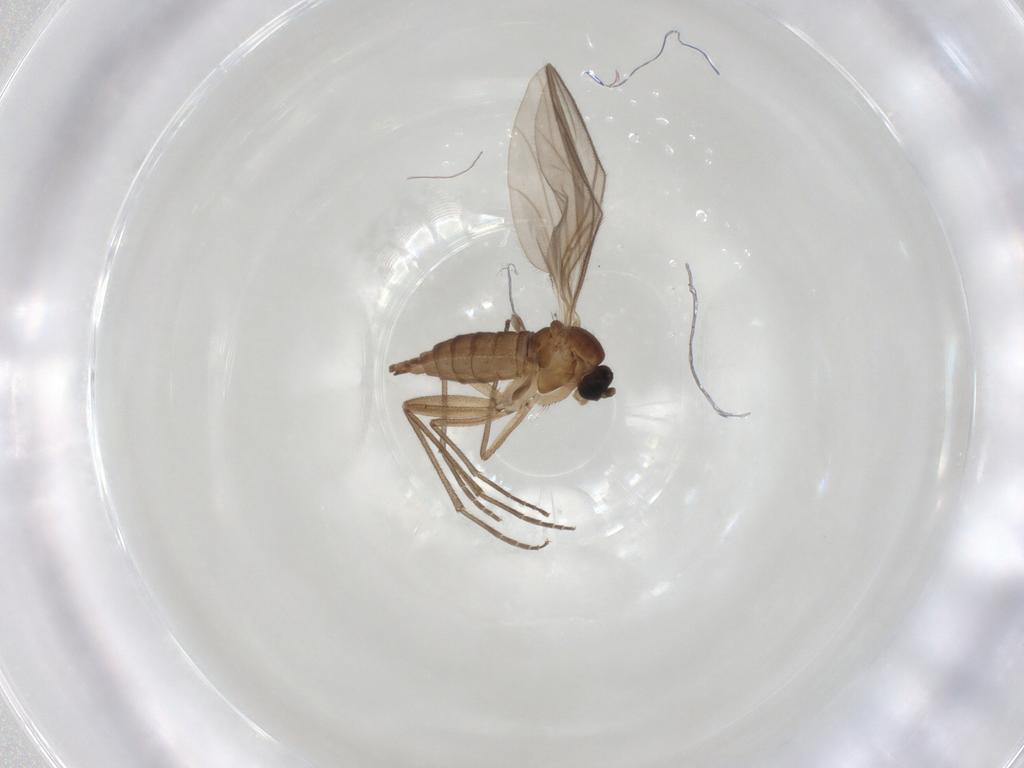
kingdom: Animalia
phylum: Arthropoda
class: Insecta
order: Diptera
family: Sciaridae
